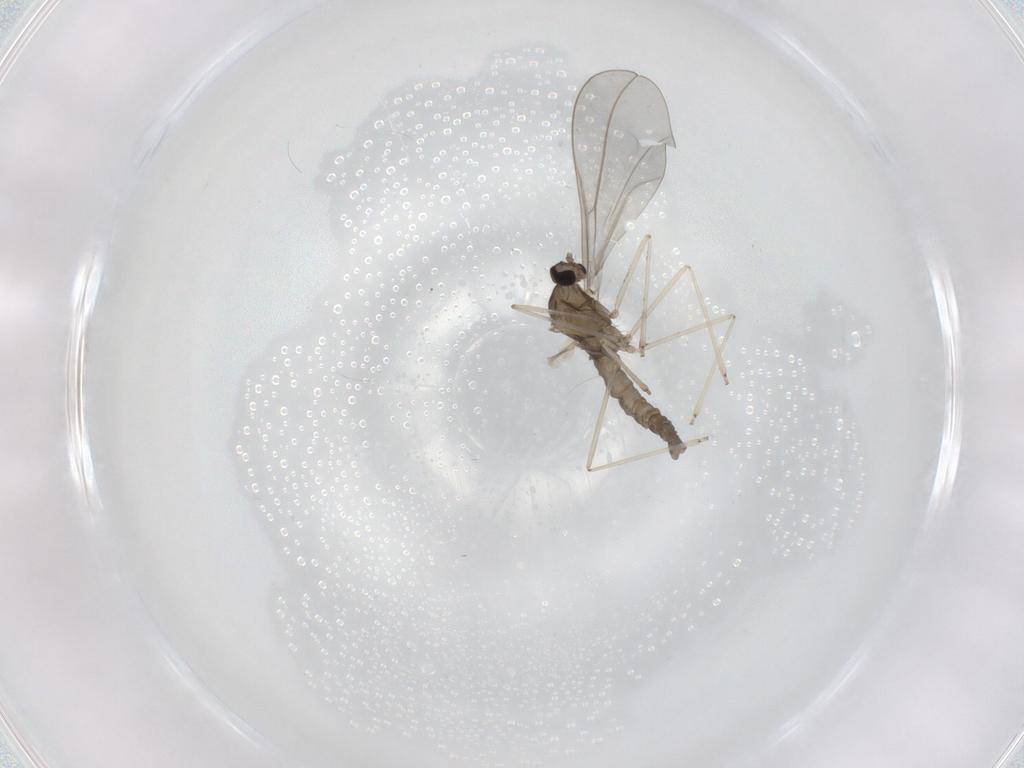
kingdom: Animalia
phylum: Arthropoda
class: Insecta
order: Diptera
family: Cecidomyiidae
